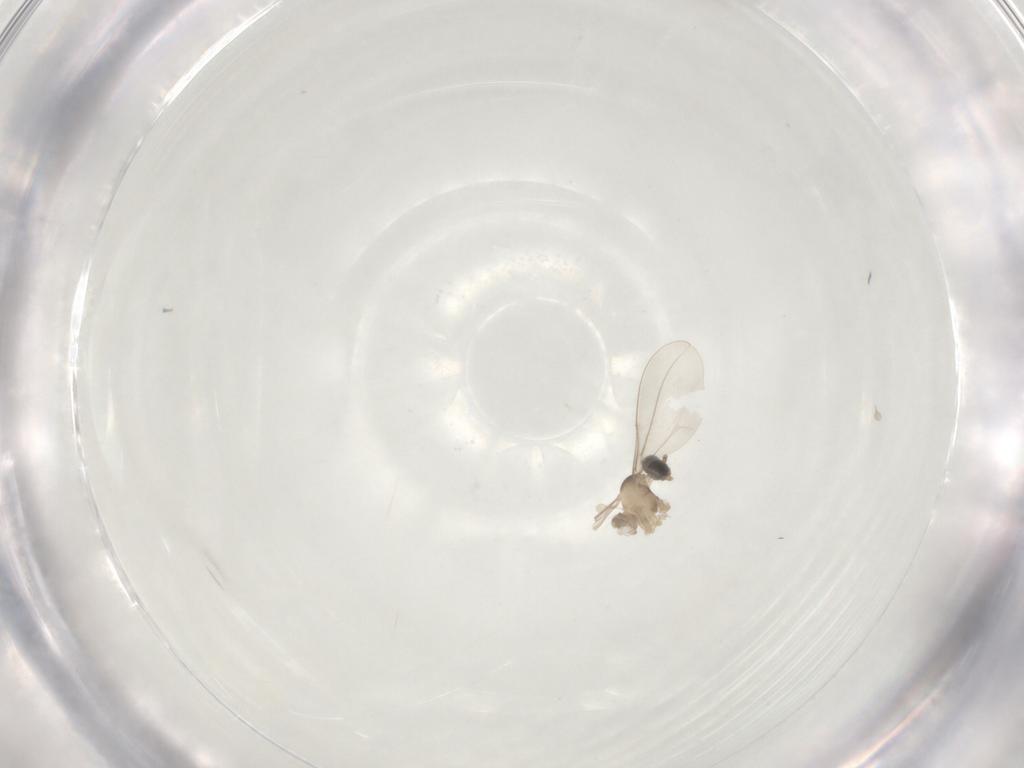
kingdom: Animalia
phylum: Arthropoda
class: Insecta
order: Diptera
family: Cecidomyiidae
